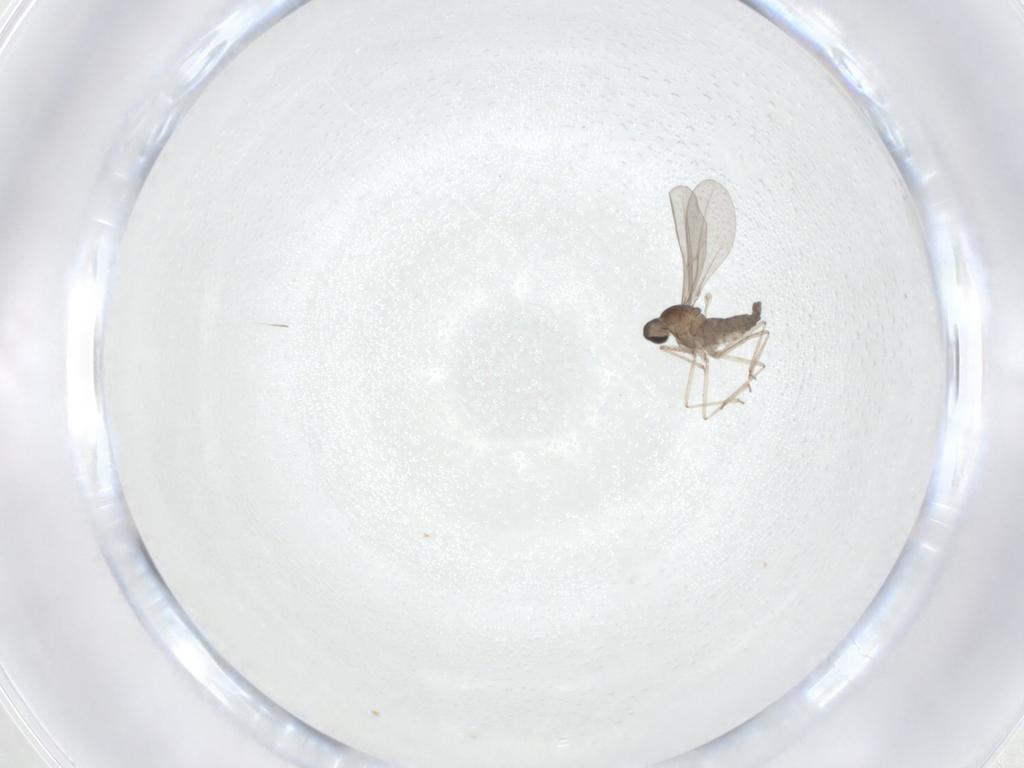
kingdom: Animalia
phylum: Arthropoda
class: Insecta
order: Diptera
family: Cecidomyiidae
